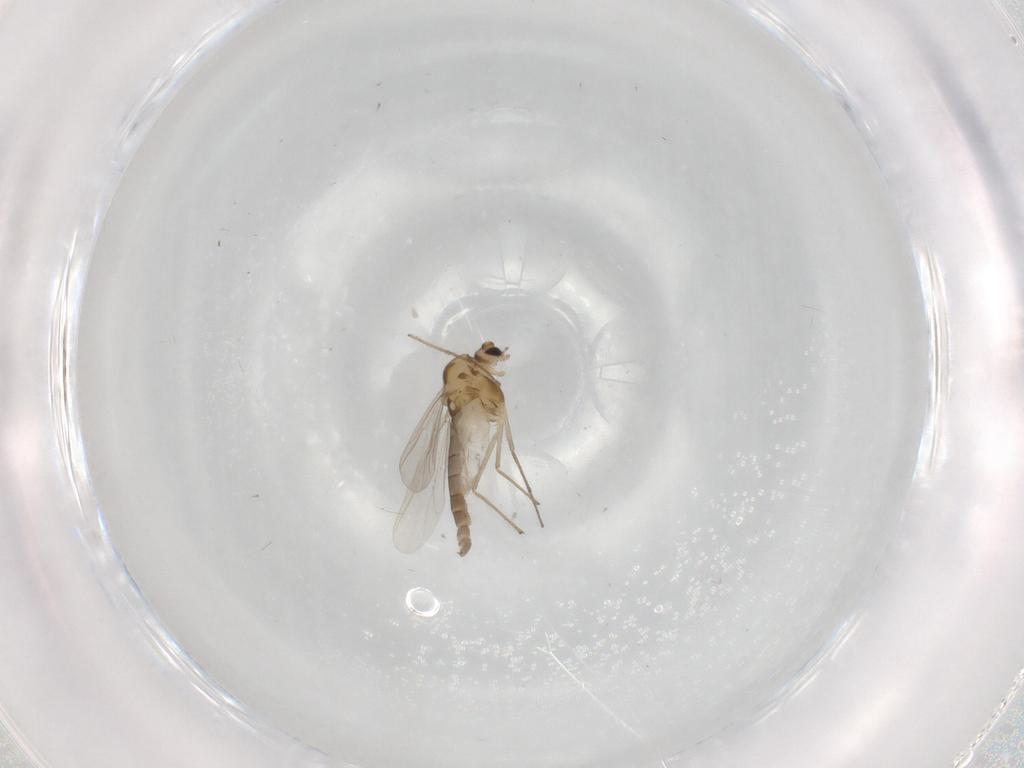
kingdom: Animalia
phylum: Arthropoda
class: Insecta
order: Diptera
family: Chironomidae
